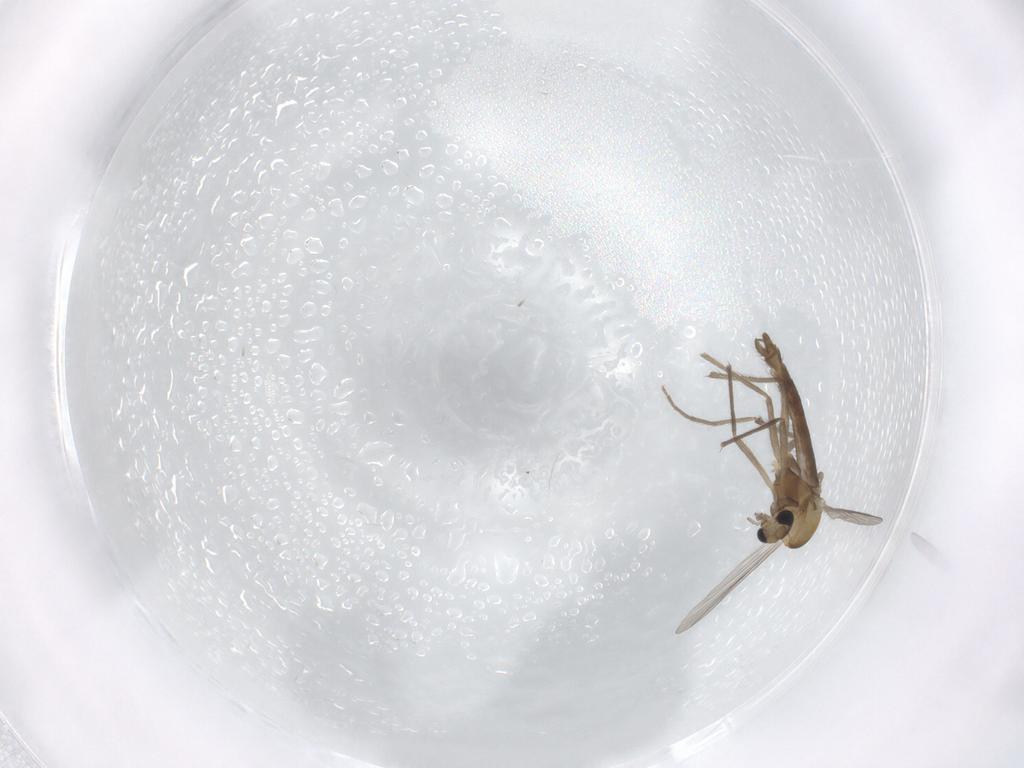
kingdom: Animalia
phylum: Arthropoda
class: Insecta
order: Diptera
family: Chironomidae
